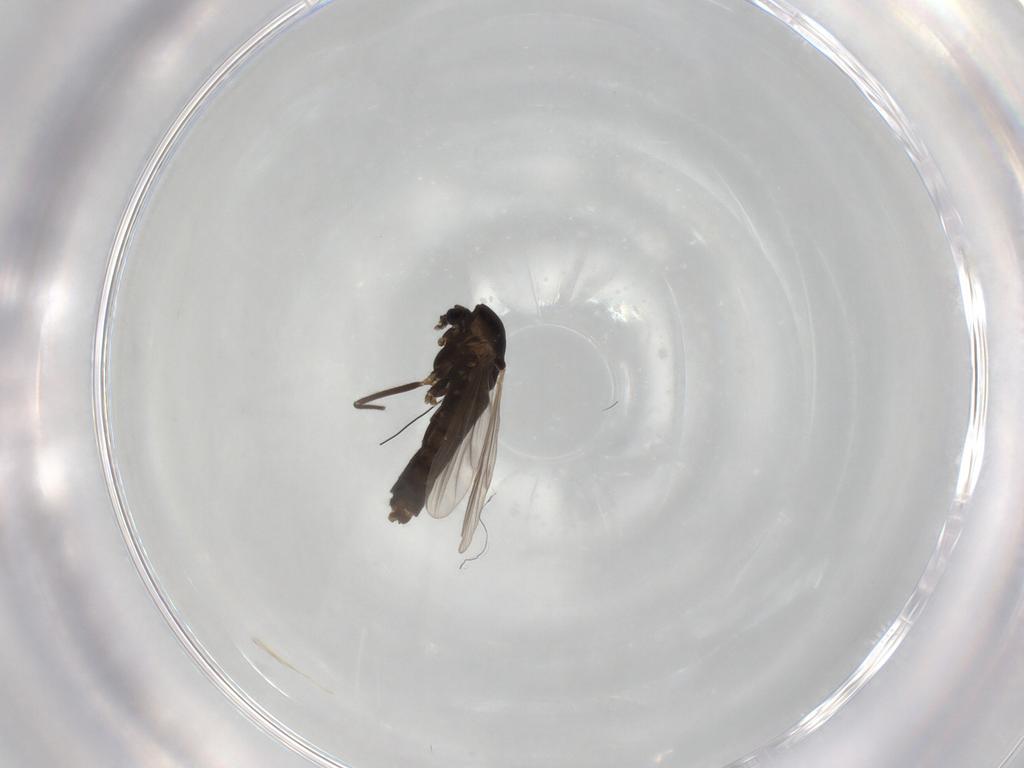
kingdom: Animalia
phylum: Arthropoda
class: Insecta
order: Diptera
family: Chironomidae
